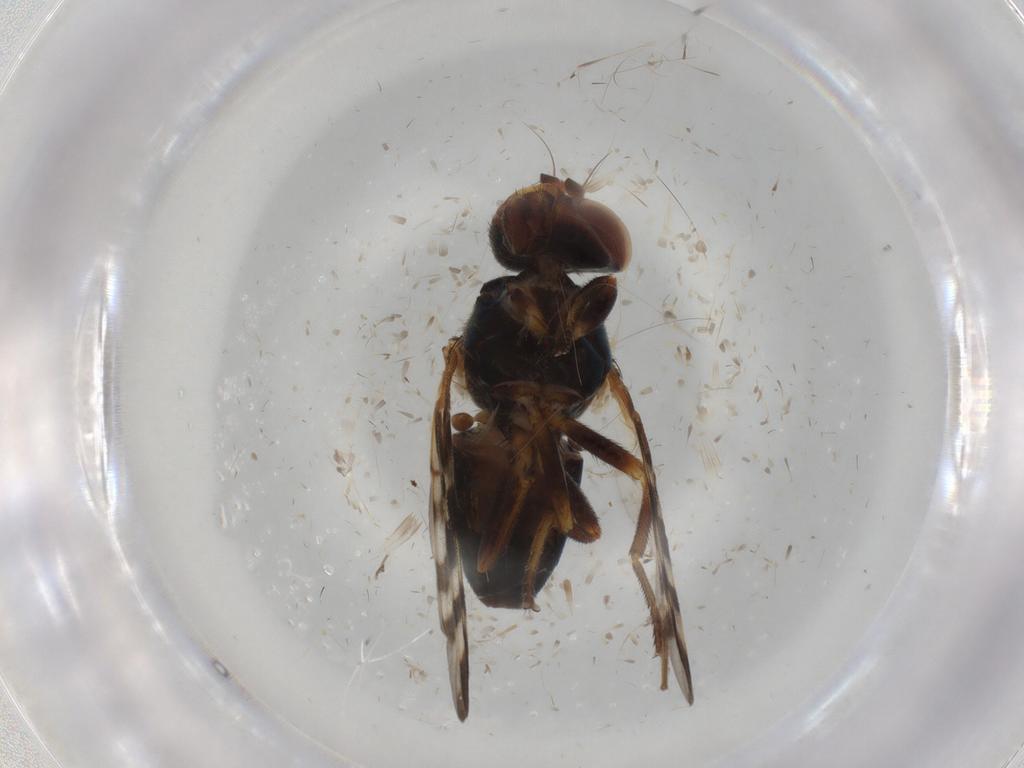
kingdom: Animalia
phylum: Arthropoda
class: Insecta
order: Diptera
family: Chironomidae
